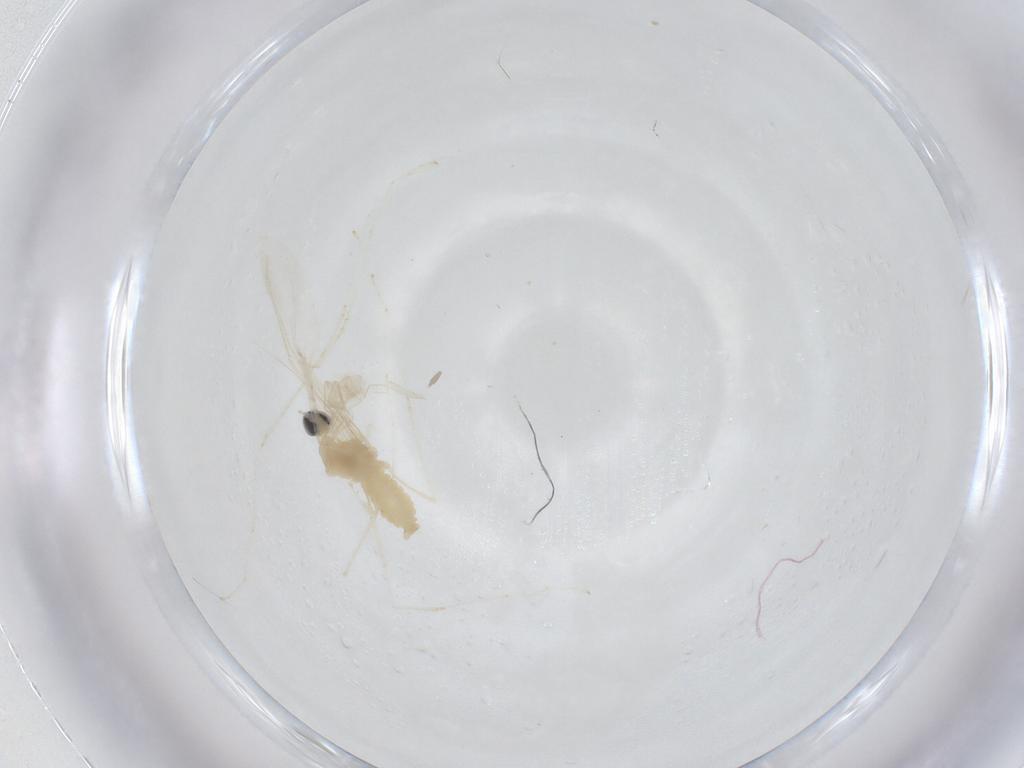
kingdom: Animalia
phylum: Arthropoda
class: Insecta
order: Diptera
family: Cecidomyiidae
